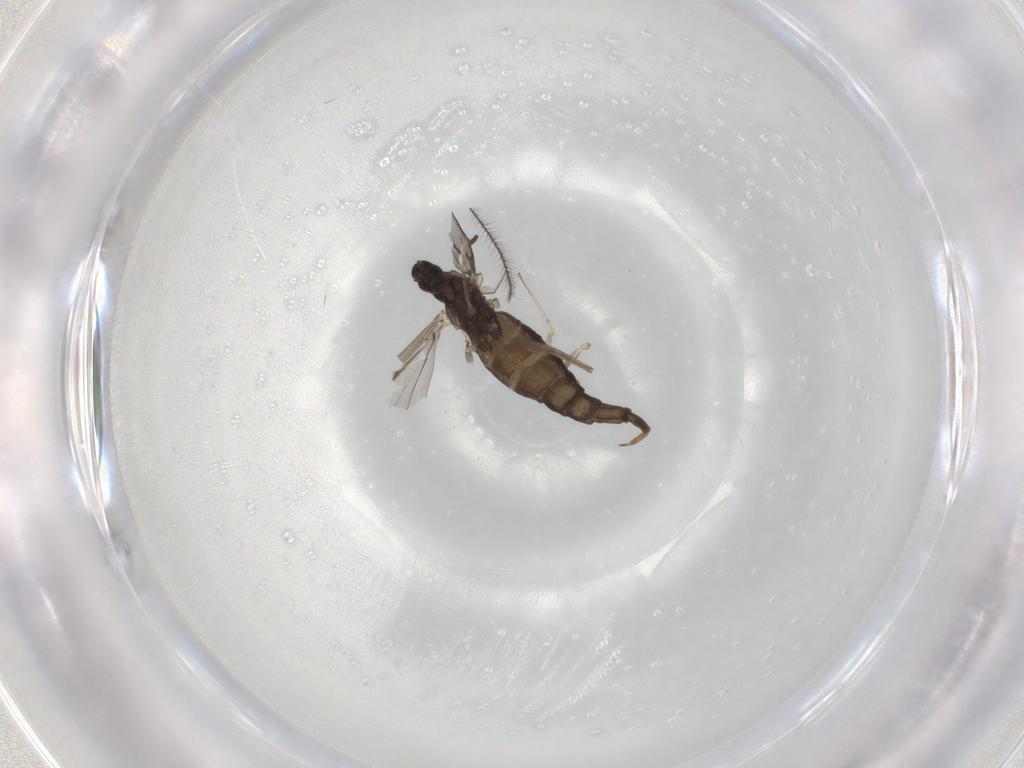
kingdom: Animalia
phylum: Arthropoda
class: Insecta
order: Diptera
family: Cecidomyiidae
